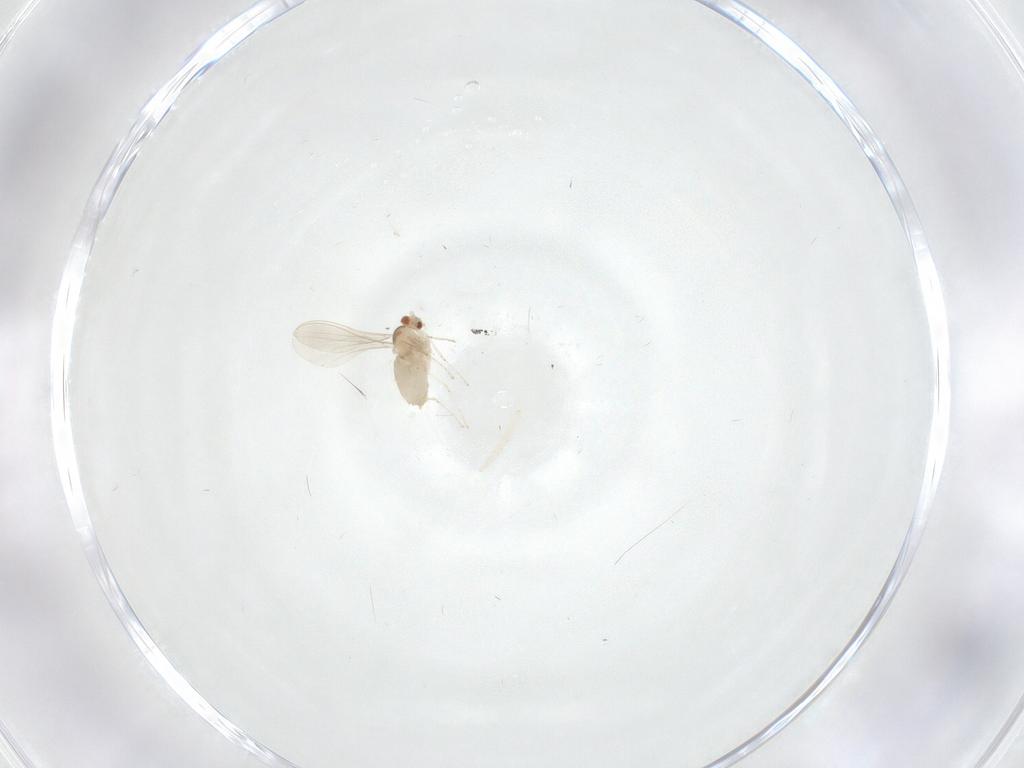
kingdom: Animalia
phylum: Arthropoda
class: Insecta
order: Diptera
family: Cecidomyiidae
